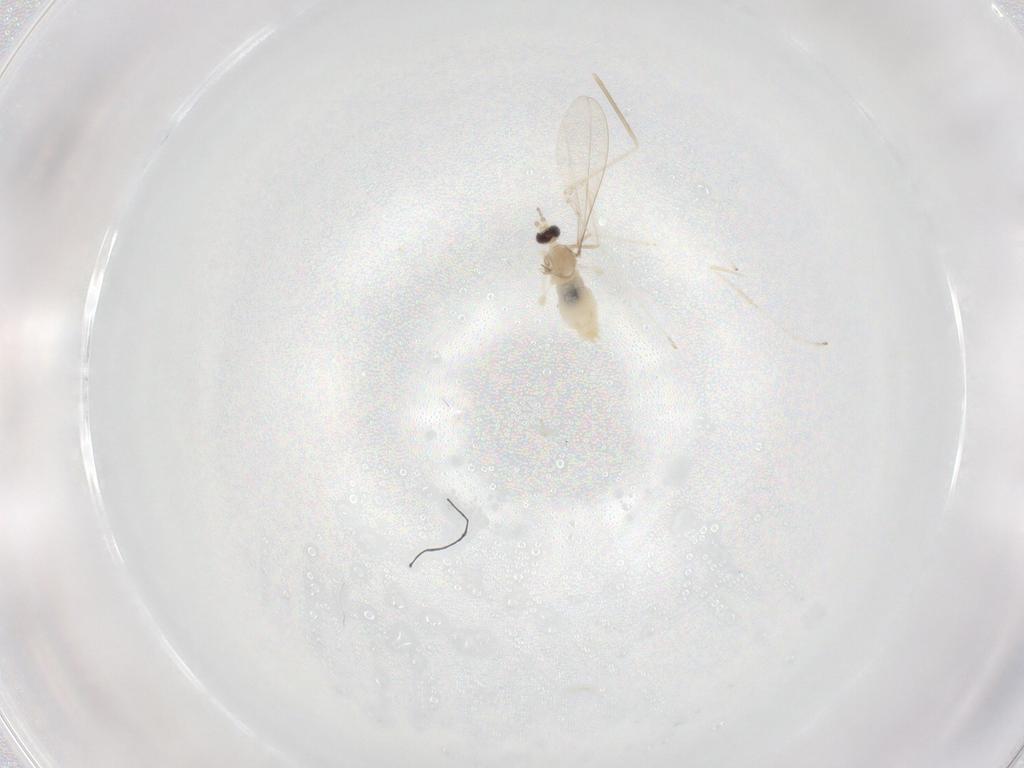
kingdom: Animalia
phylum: Arthropoda
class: Insecta
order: Diptera
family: Cecidomyiidae
